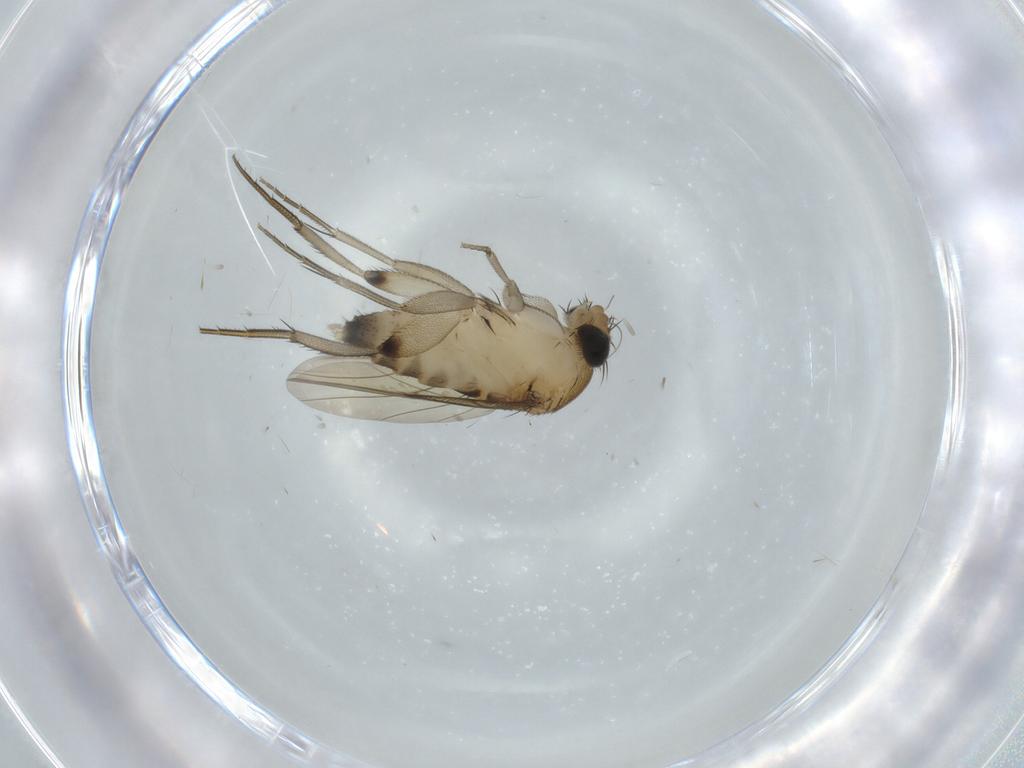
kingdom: Animalia
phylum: Arthropoda
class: Insecta
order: Diptera
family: Phoridae
